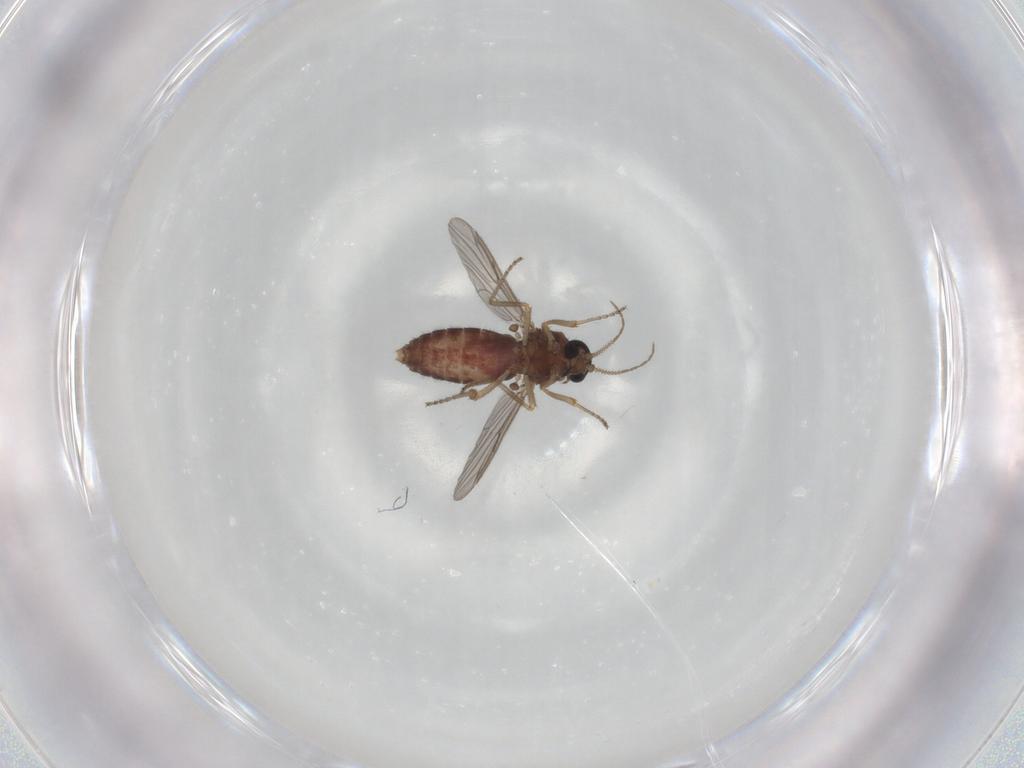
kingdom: Animalia
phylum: Arthropoda
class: Insecta
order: Diptera
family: Ceratopogonidae
